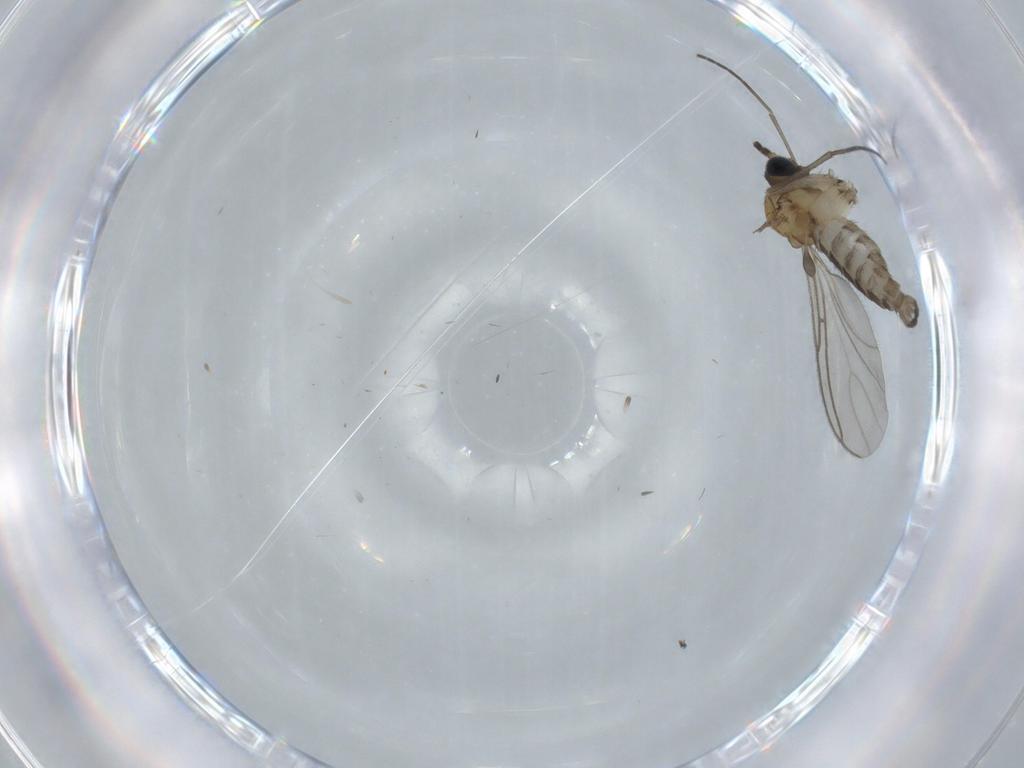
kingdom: Animalia
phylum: Arthropoda
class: Insecta
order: Diptera
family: Sciaridae
